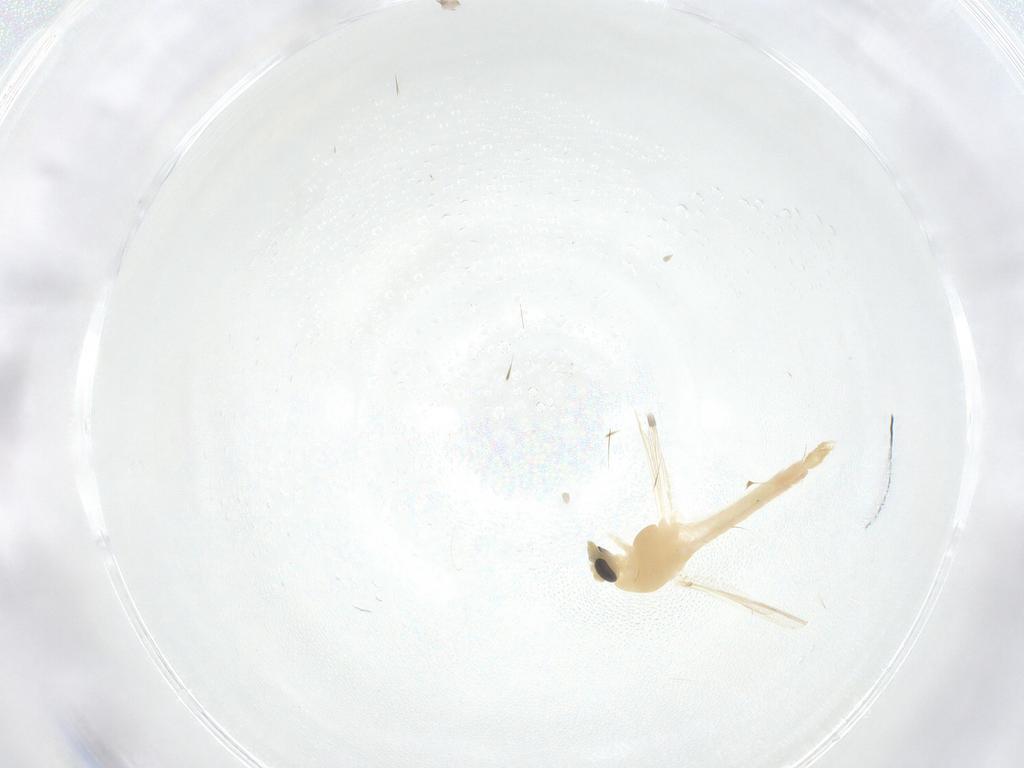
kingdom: Animalia
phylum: Arthropoda
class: Insecta
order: Diptera
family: Chironomidae
